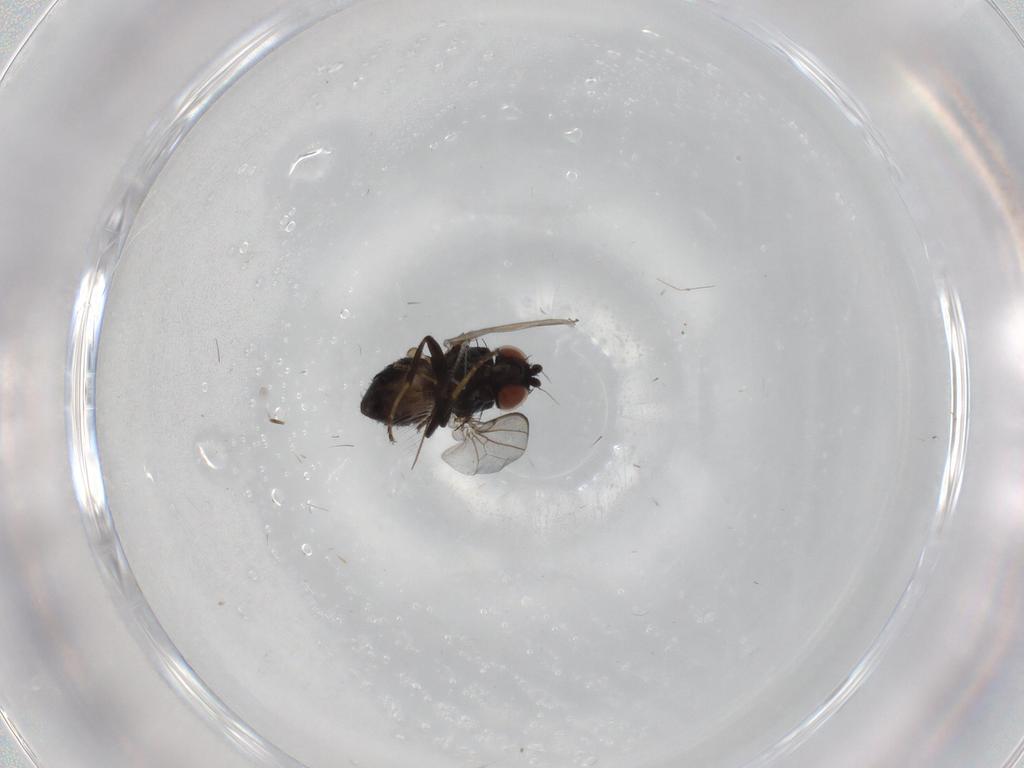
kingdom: Animalia
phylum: Arthropoda
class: Insecta
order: Diptera
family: Milichiidae
